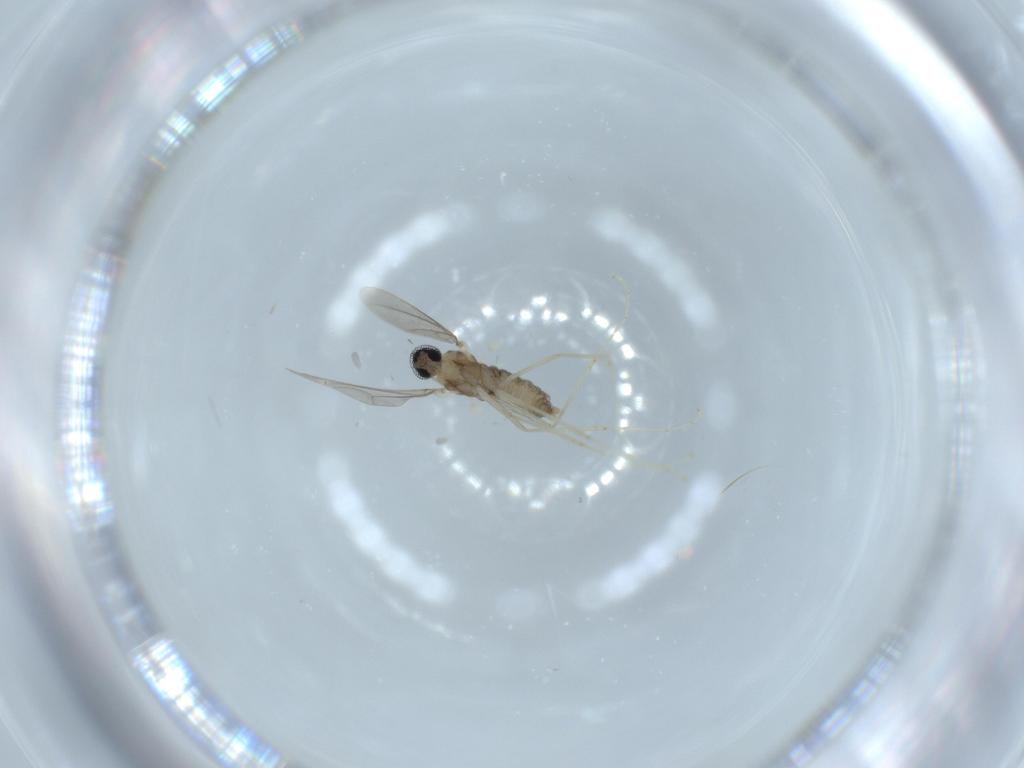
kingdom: Animalia
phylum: Arthropoda
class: Insecta
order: Diptera
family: Cecidomyiidae
